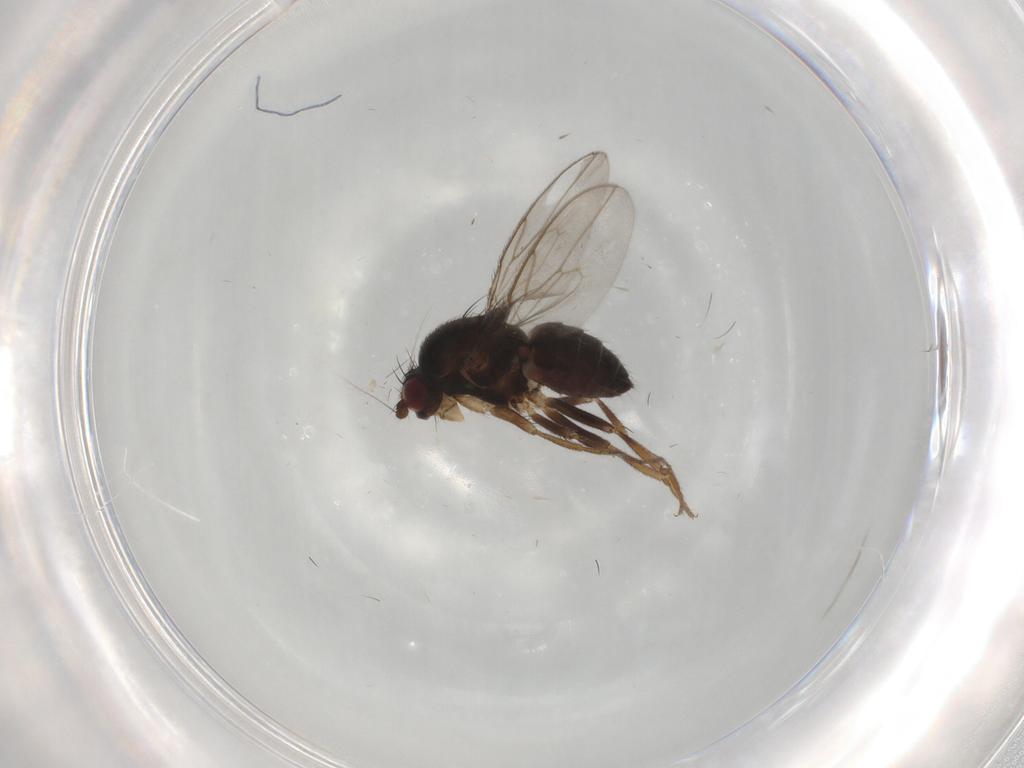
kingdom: Animalia
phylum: Arthropoda
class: Insecta
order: Diptera
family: Sphaeroceridae
